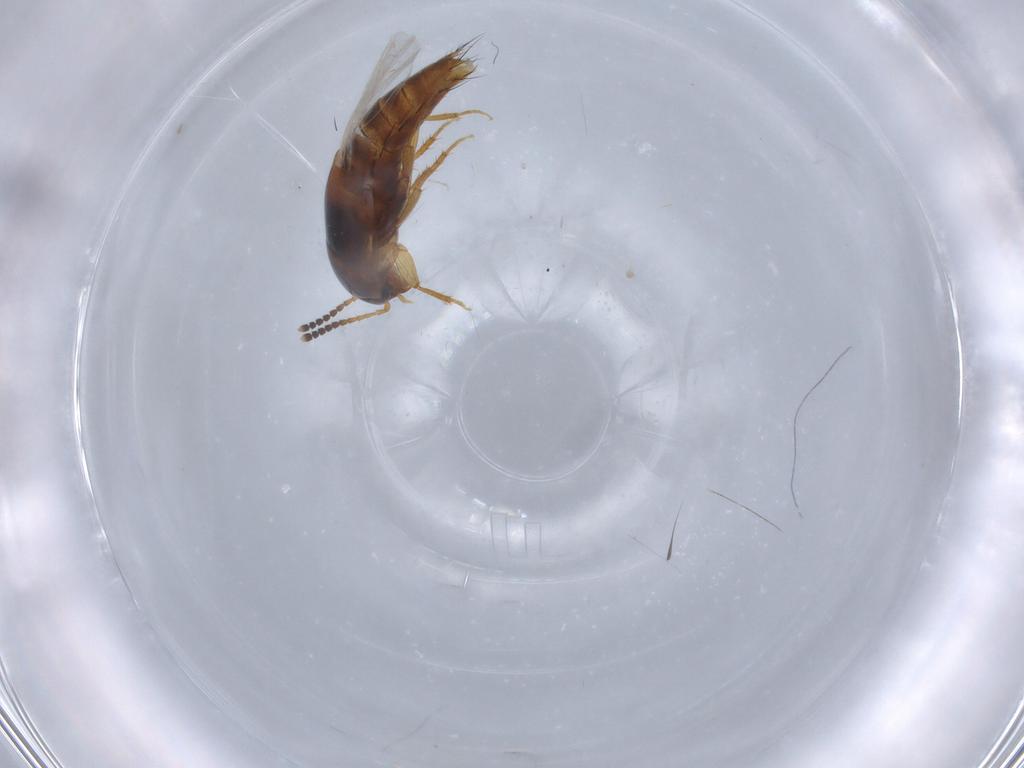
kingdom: Animalia
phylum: Arthropoda
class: Insecta
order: Coleoptera
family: Staphylinidae
